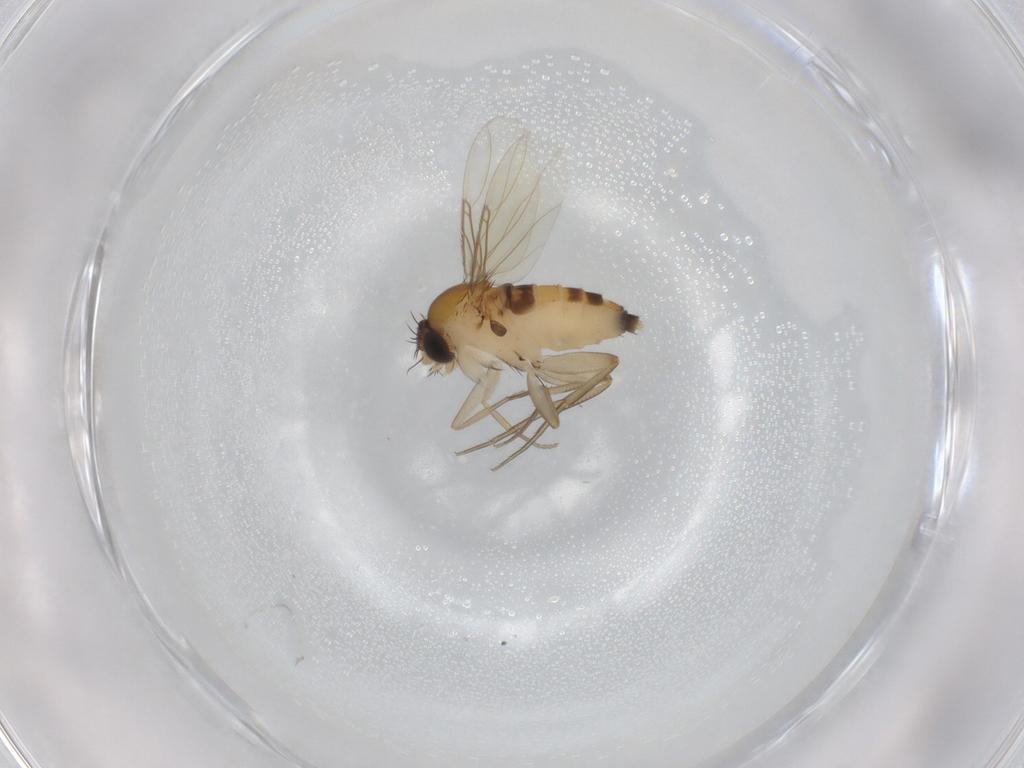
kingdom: Animalia
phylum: Arthropoda
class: Insecta
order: Diptera
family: Phoridae
